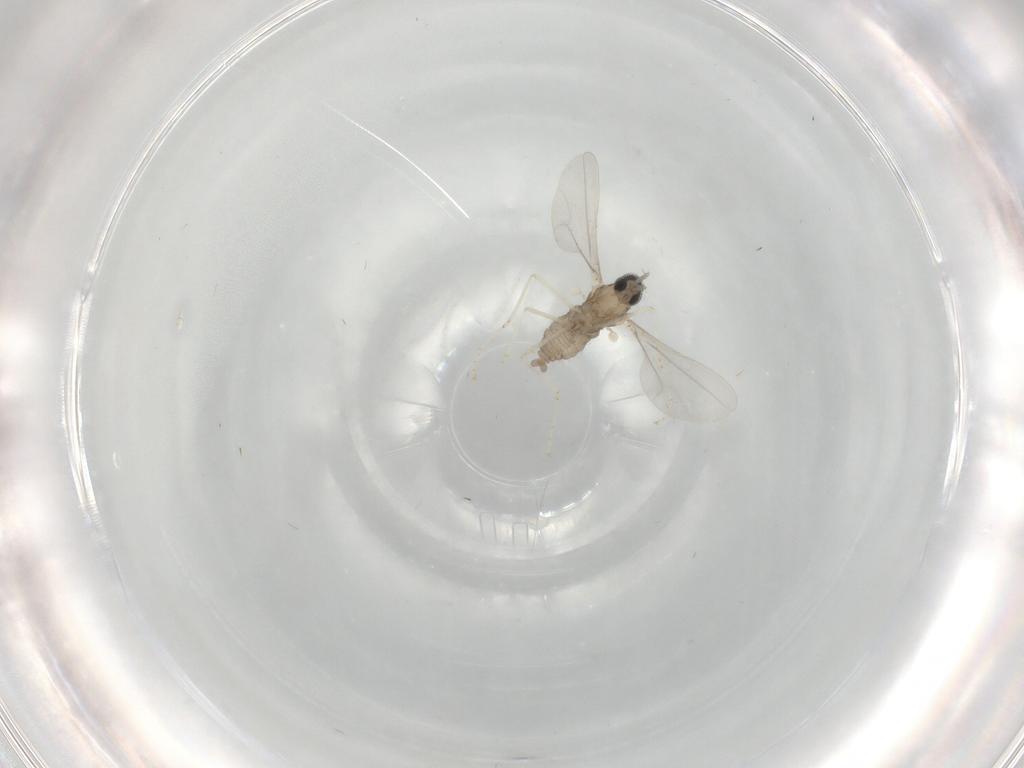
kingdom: Animalia
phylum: Arthropoda
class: Insecta
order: Diptera
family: Cecidomyiidae
